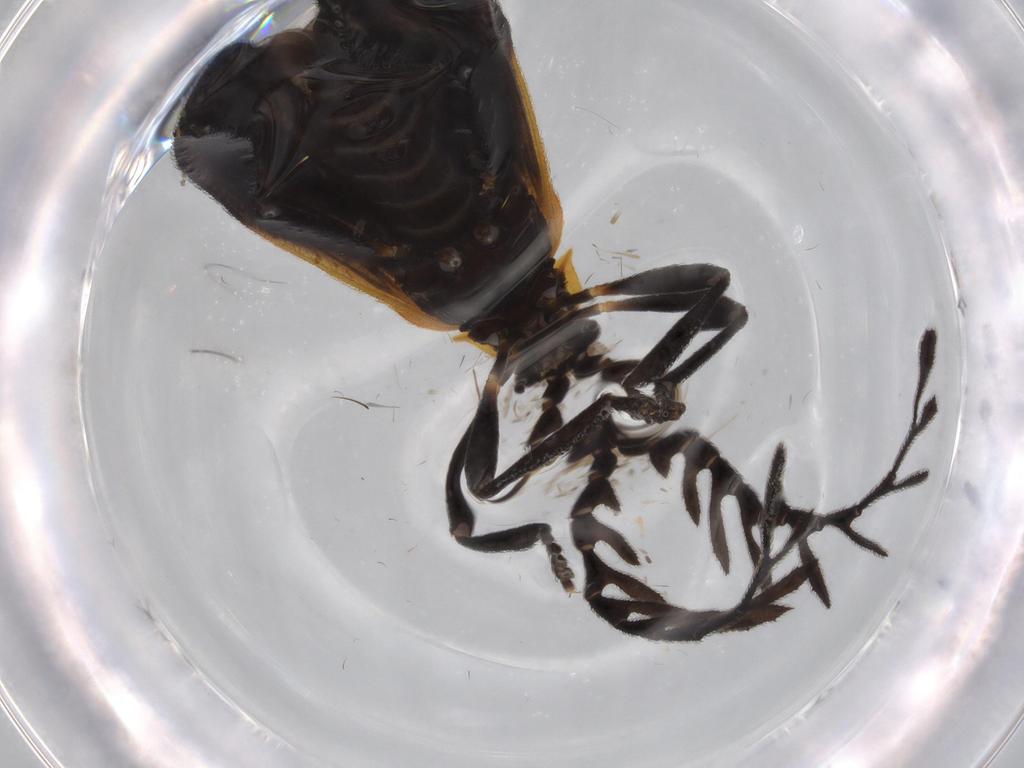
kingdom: Animalia
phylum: Arthropoda
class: Insecta
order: Coleoptera
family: Lycidae
